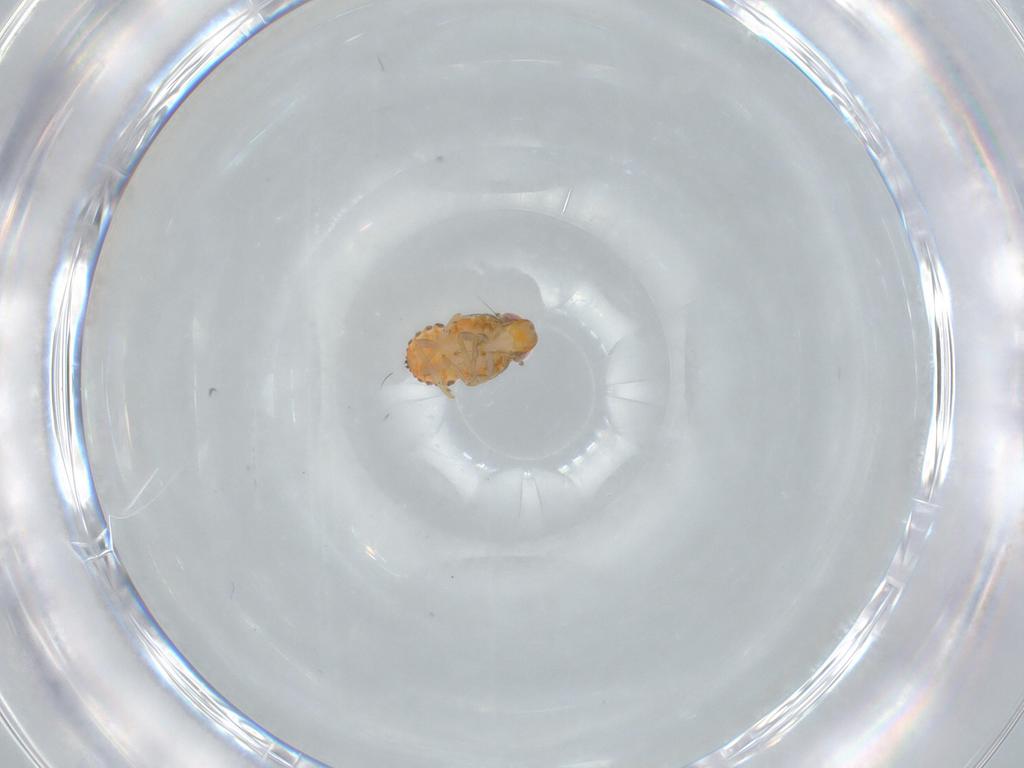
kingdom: Animalia
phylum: Arthropoda
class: Insecta
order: Hemiptera
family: Issidae
